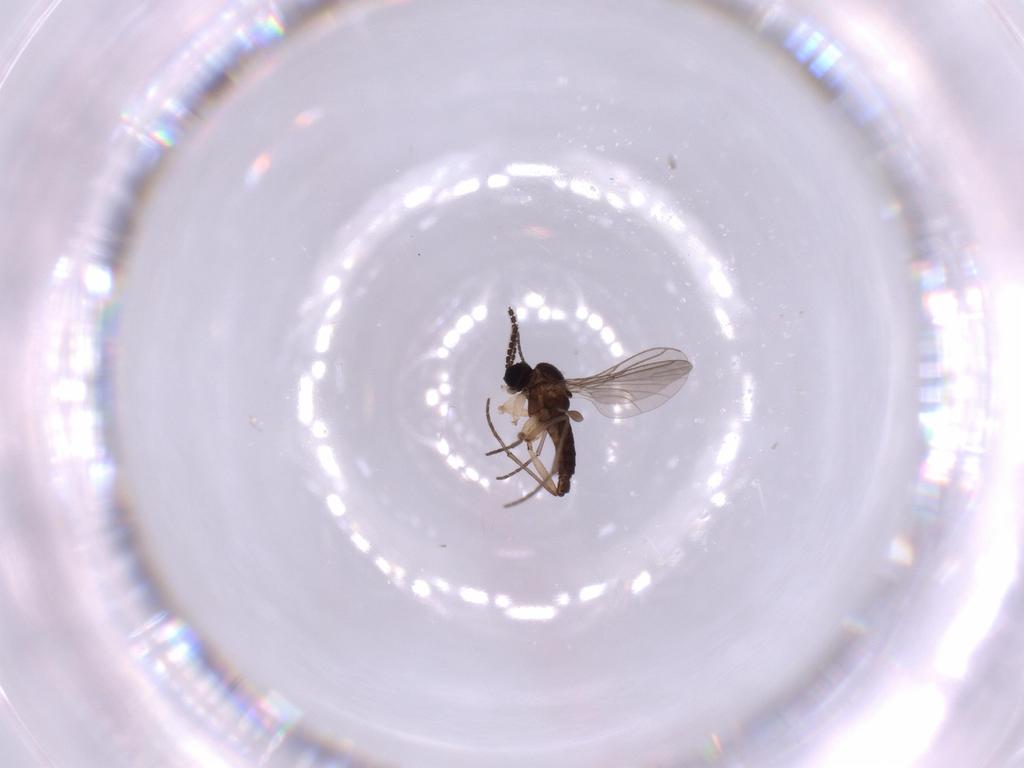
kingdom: Animalia
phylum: Arthropoda
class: Insecta
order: Diptera
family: Sciaridae
